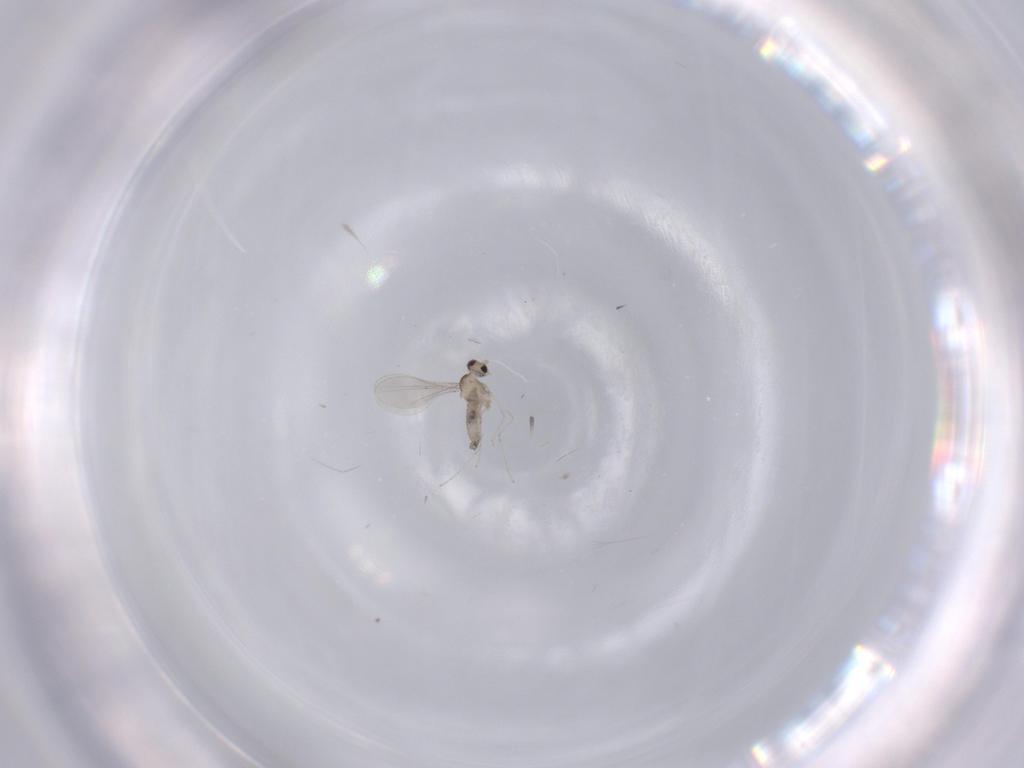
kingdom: Animalia
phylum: Arthropoda
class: Insecta
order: Diptera
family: Cecidomyiidae
